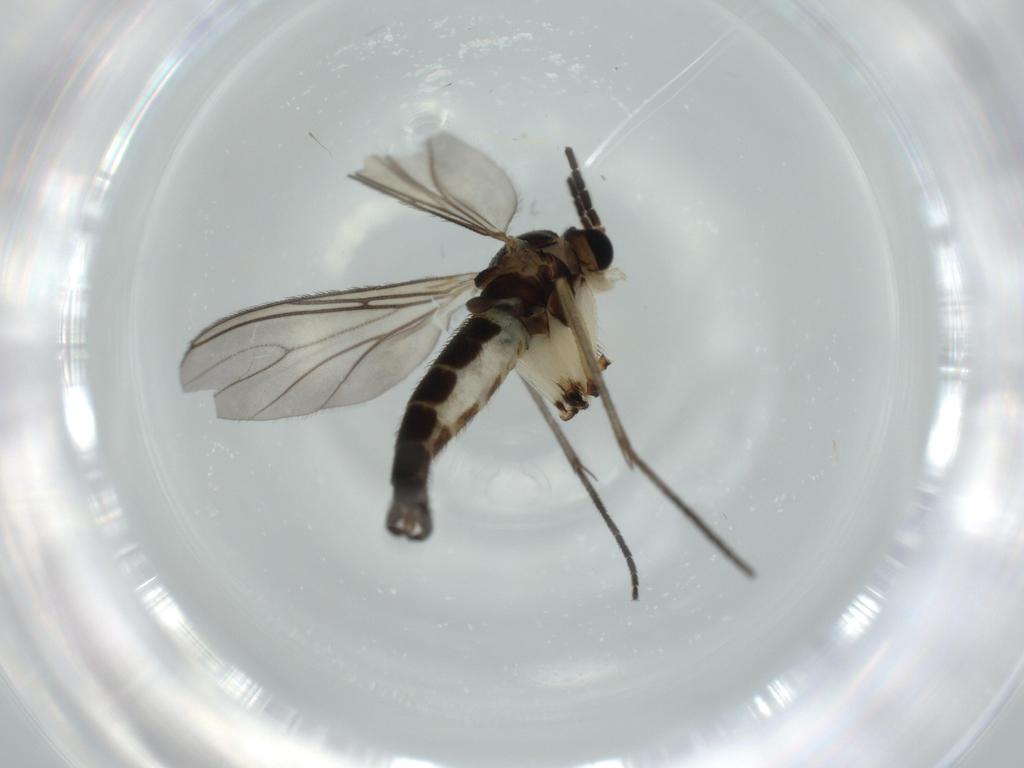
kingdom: Animalia
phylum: Arthropoda
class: Insecta
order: Diptera
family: Sciaridae
